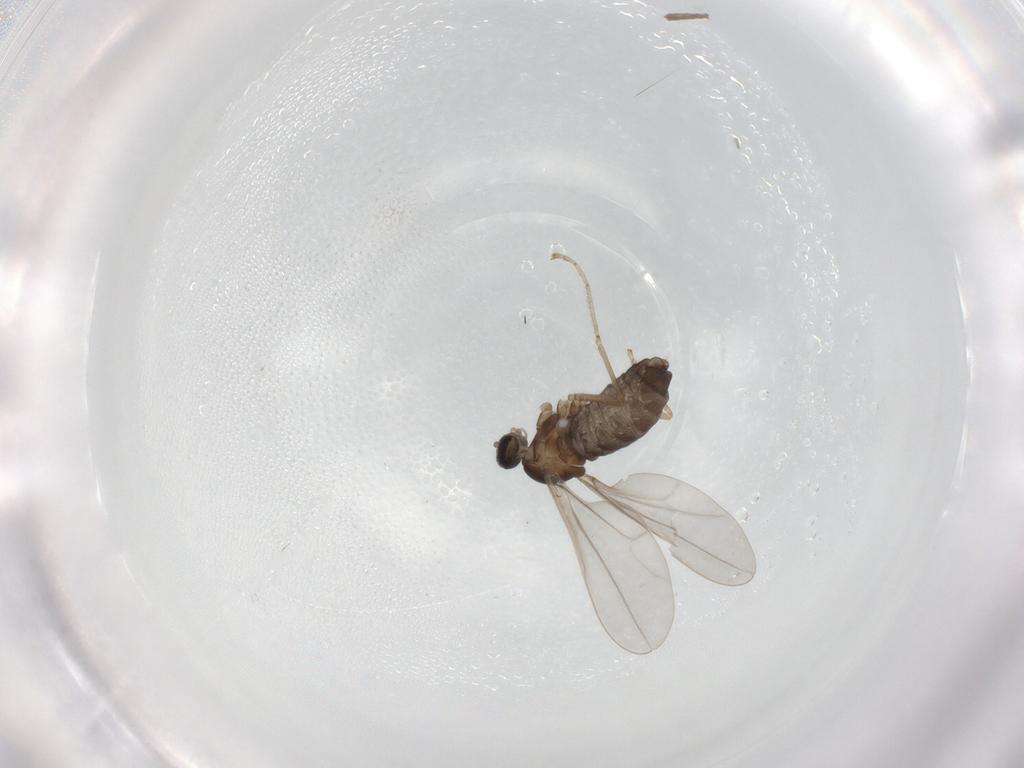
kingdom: Animalia
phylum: Arthropoda
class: Insecta
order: Diptera
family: Cecidomyiidae
